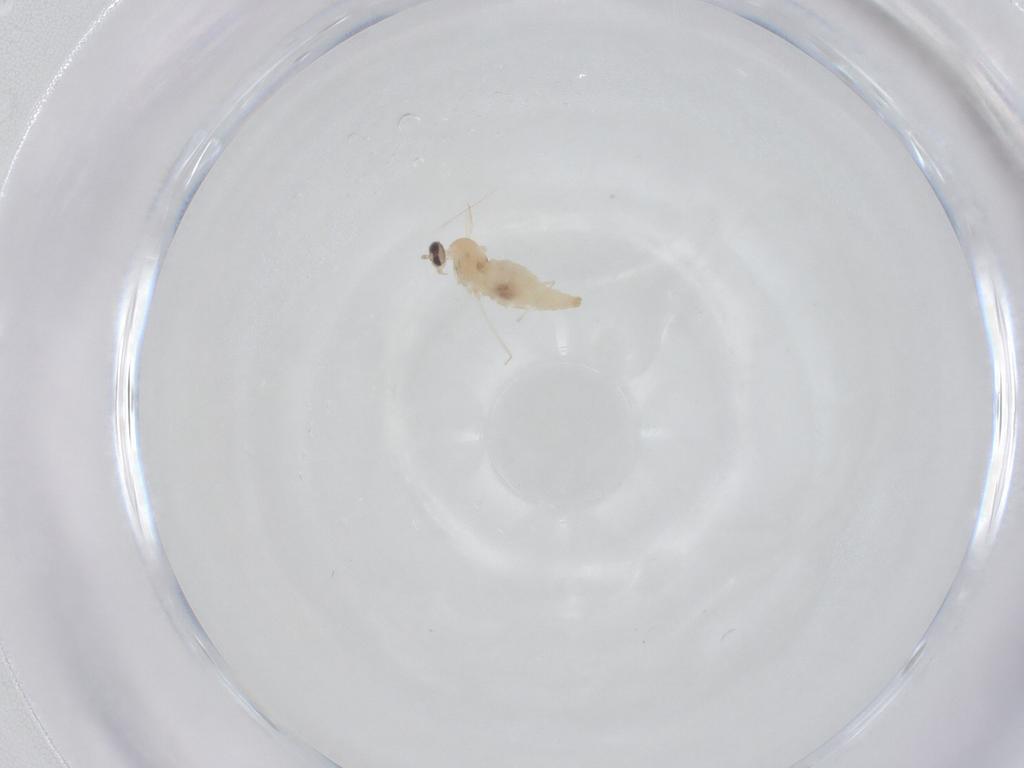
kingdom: Animalia
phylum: Arthropoda
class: Insecta
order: Diptera
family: Cecidomyiidae
